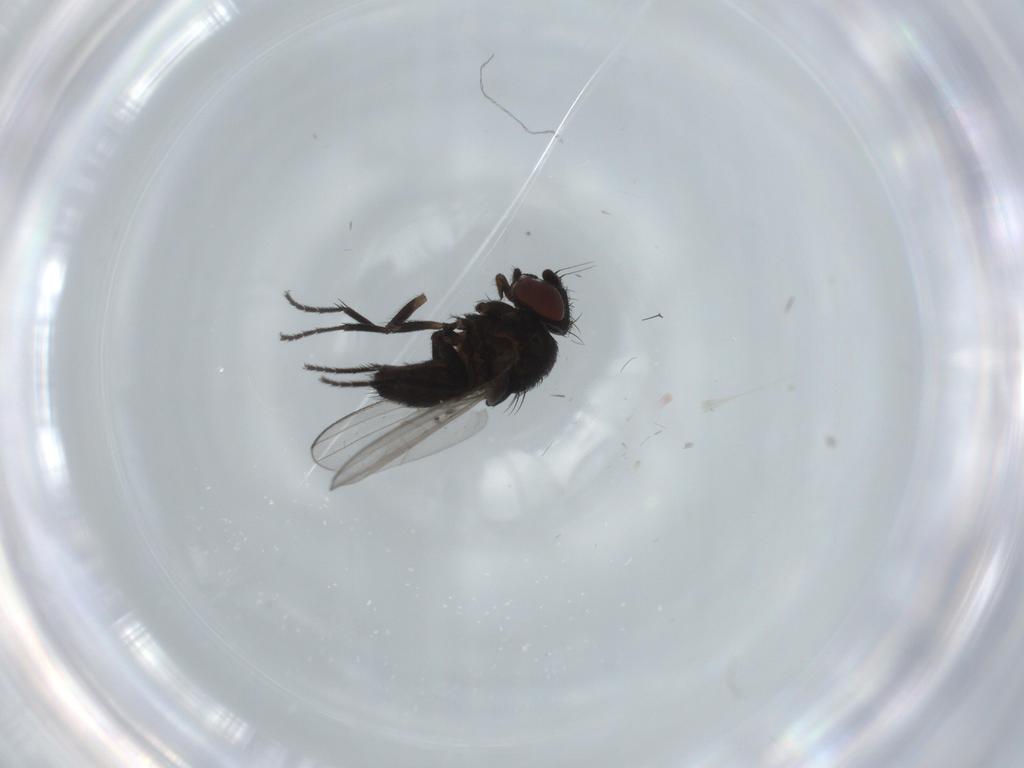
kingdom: Animalia
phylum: Arthropoda
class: Insecta
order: Diptera
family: Milichiidae
